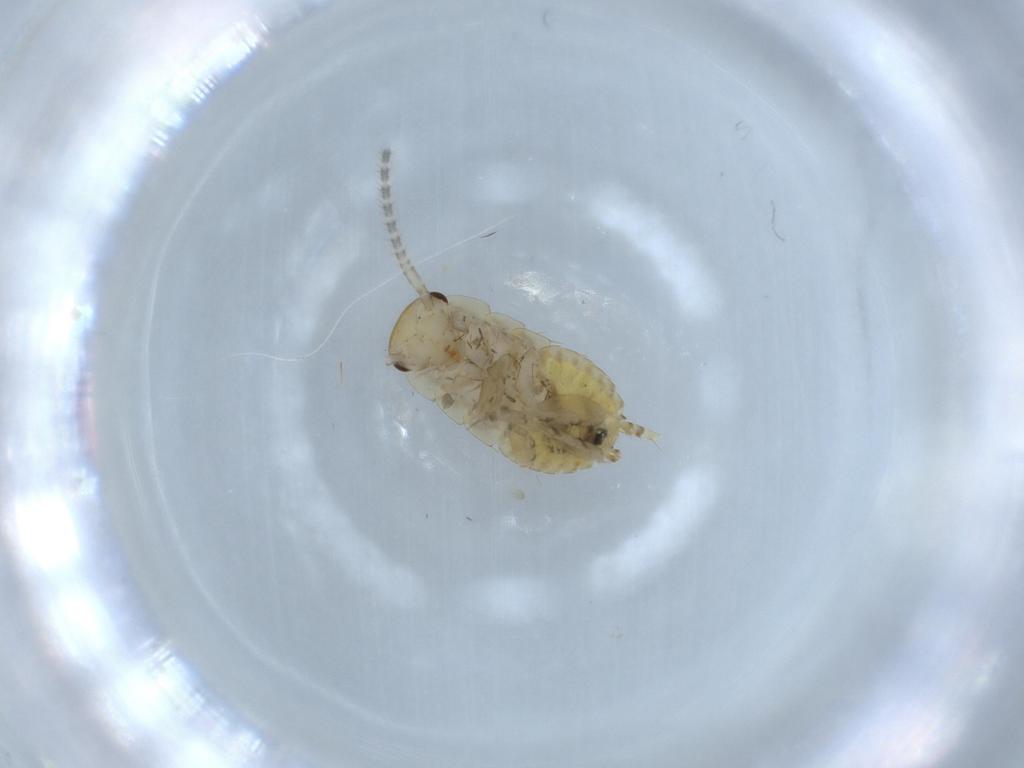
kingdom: Animalia
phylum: Arthropoda
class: Insecta
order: Blattodea
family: Ectobiidae
